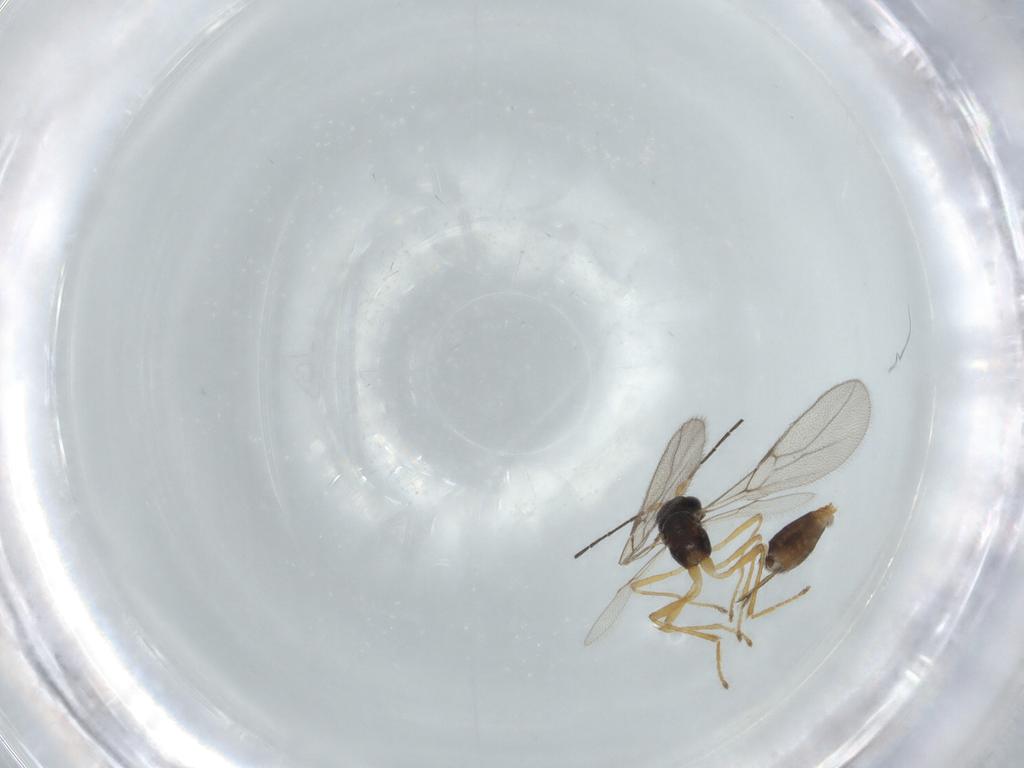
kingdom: Animalia
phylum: Arthropoda
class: Insecta
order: Hymenoptera
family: Braconidae
